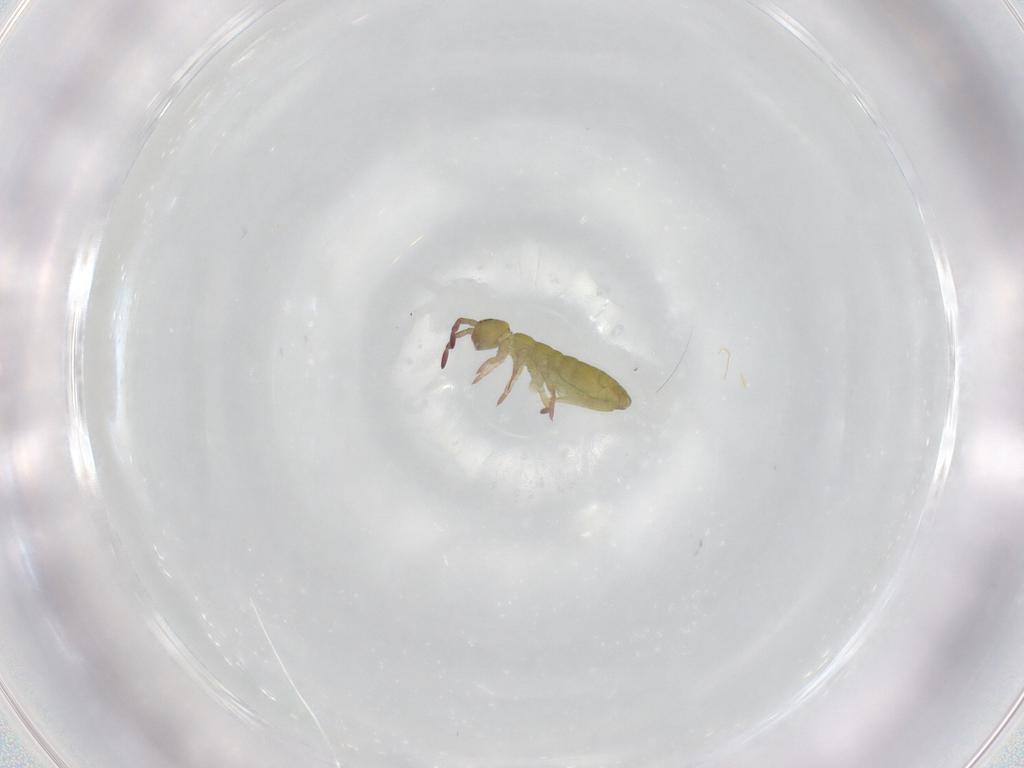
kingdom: Animalia
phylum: Arthropoda
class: Collembola
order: Entomobryomorpha
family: Isotomidae
